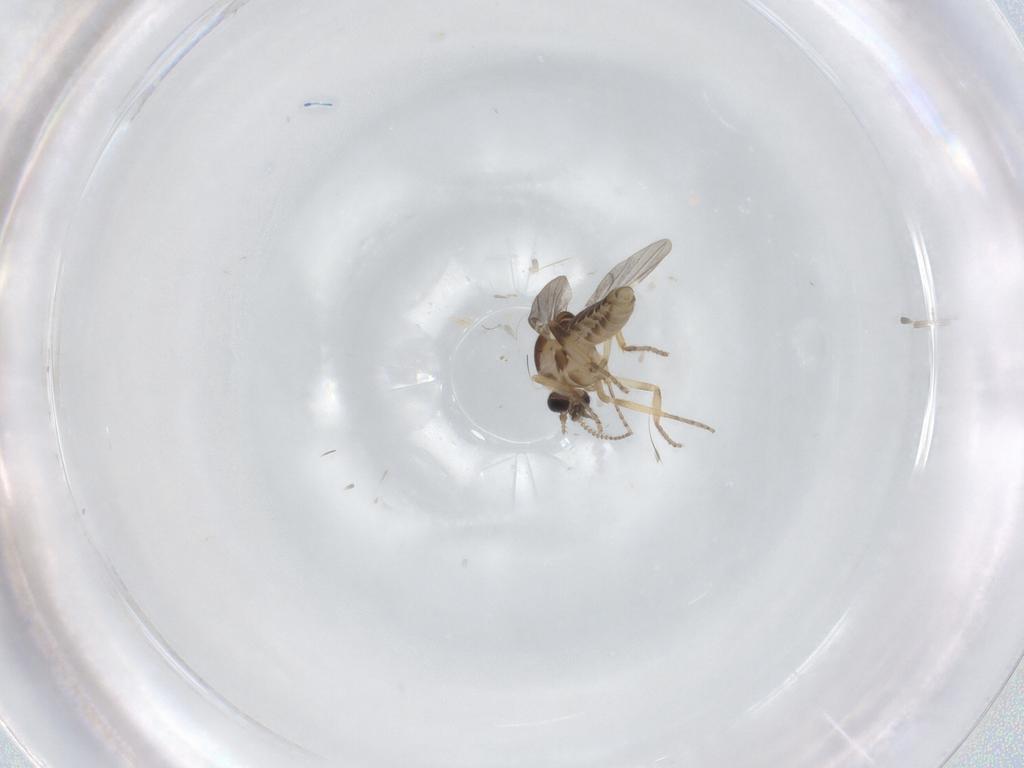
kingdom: Animalia
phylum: Arthropoda
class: Insecta
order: Diptera
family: Ceratopogonidae
